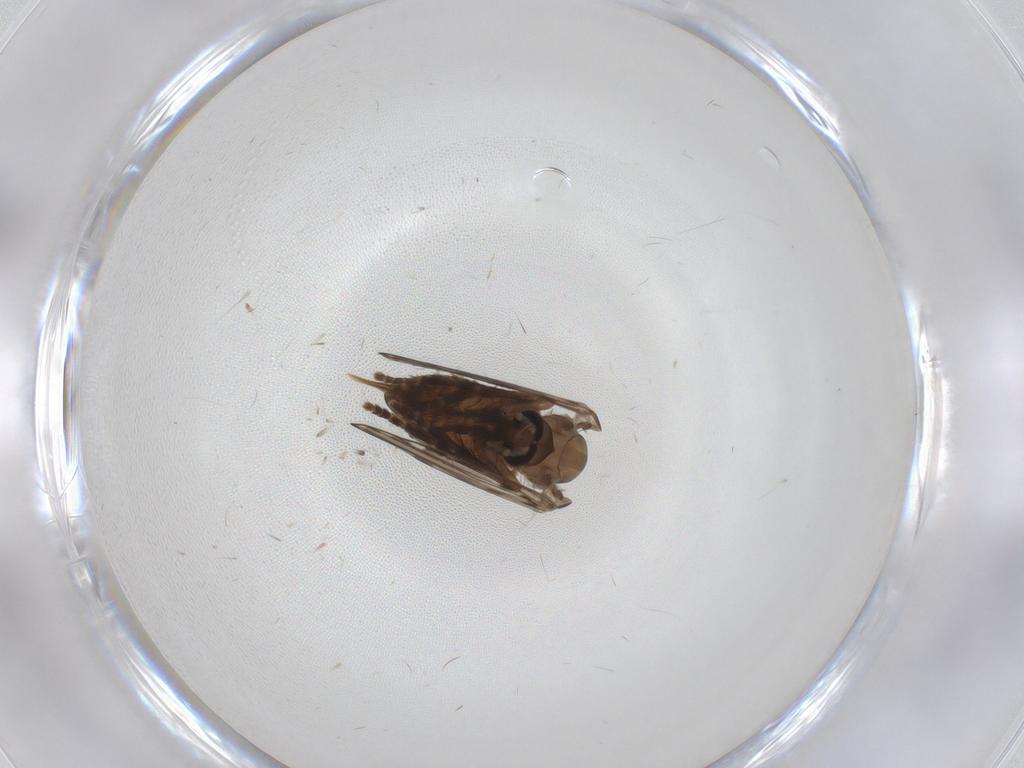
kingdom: Animalia
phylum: Arthropoda
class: Insecta
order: Diptera
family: Psychodidae
